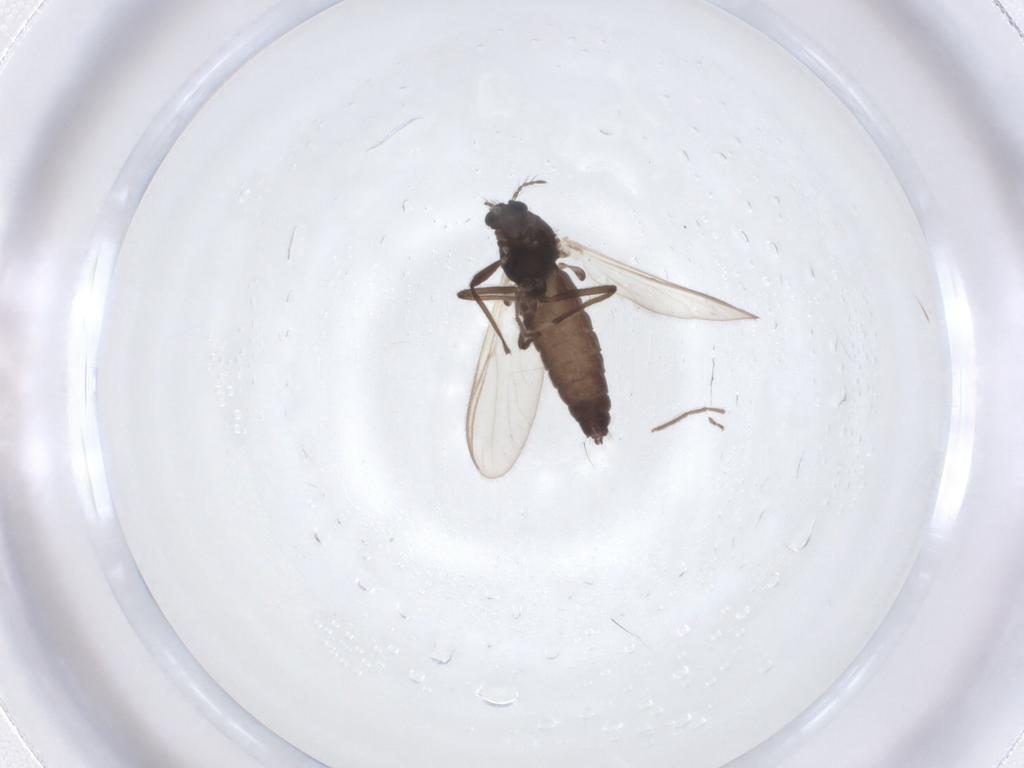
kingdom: Animalia
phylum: Arthropoda
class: Insecta
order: Diptera
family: Chironomidae
